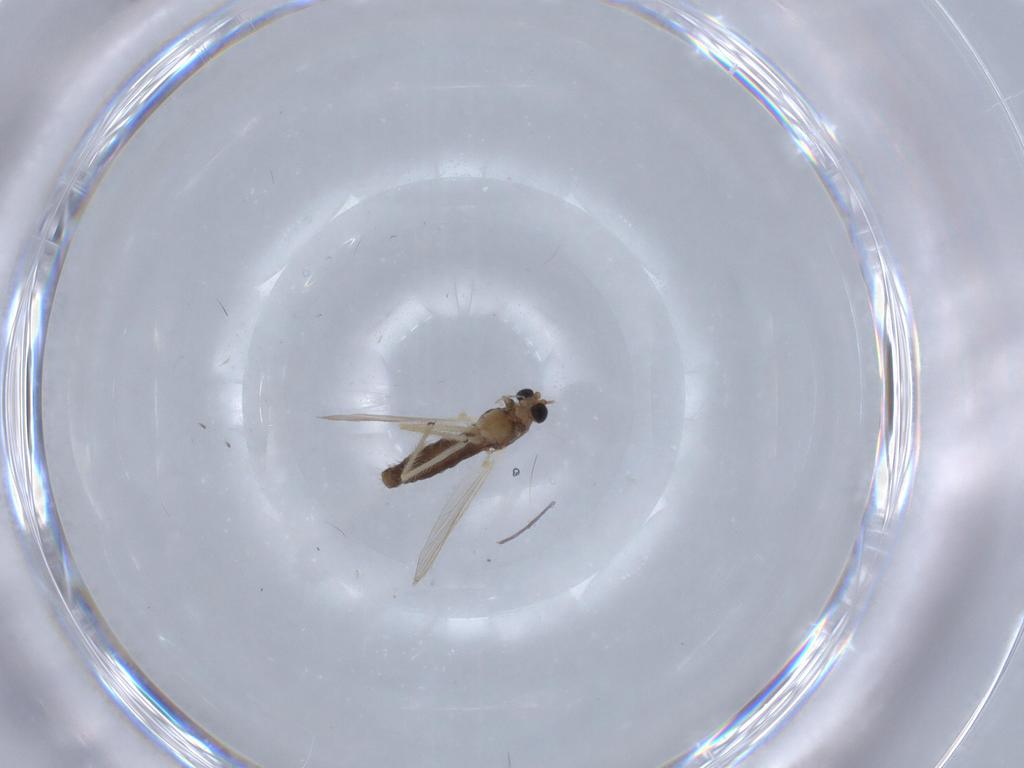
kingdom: Animalia
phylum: Arthropoda
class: Insecta
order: Diptera
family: Chironomidae
